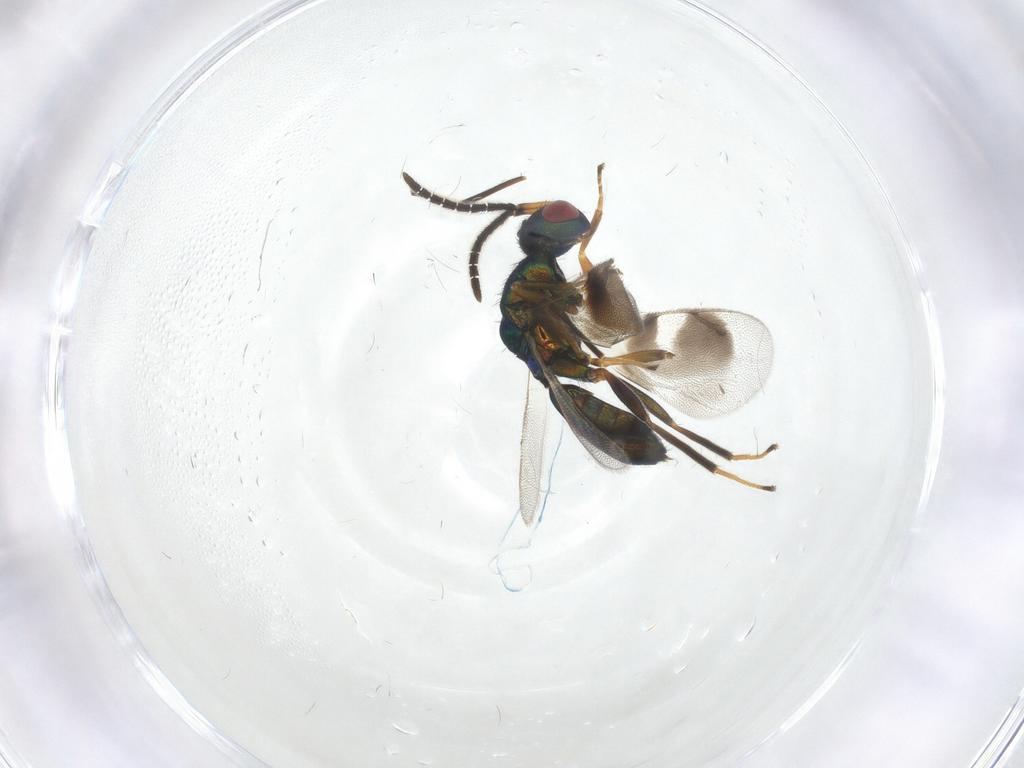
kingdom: Animalia
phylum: Arthropoda
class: Insecta
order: Hymenoptera
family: Pteromalidae
